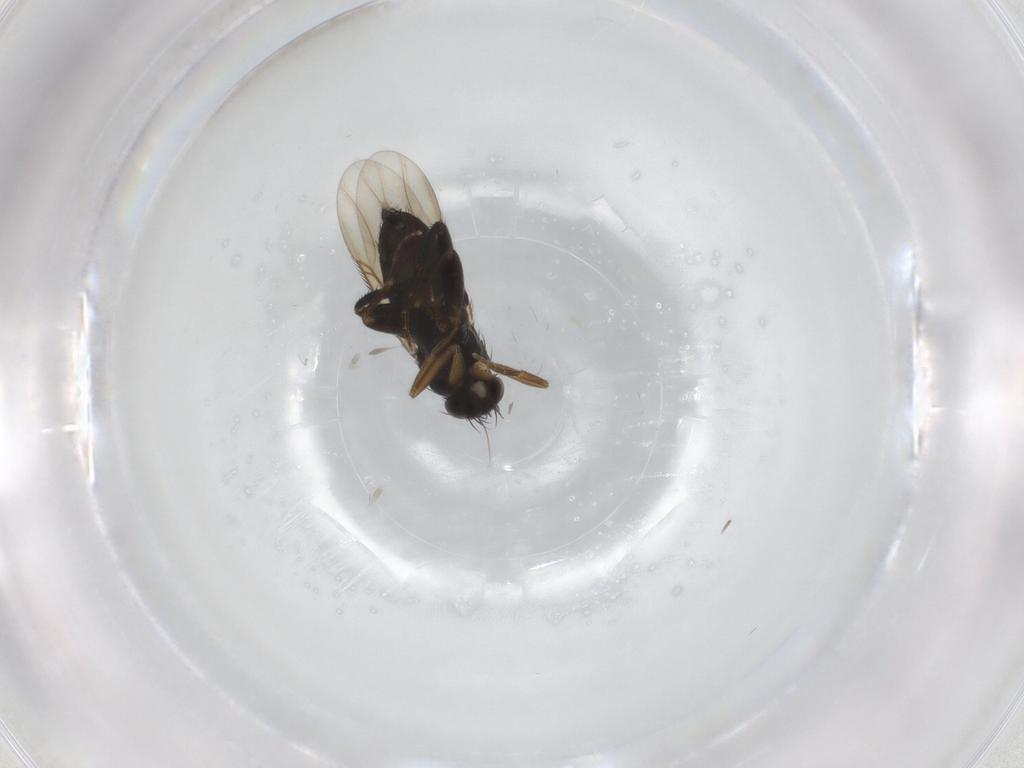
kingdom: Animalia
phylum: Arthropoda
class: Insecta
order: Diptera
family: Phoridae
